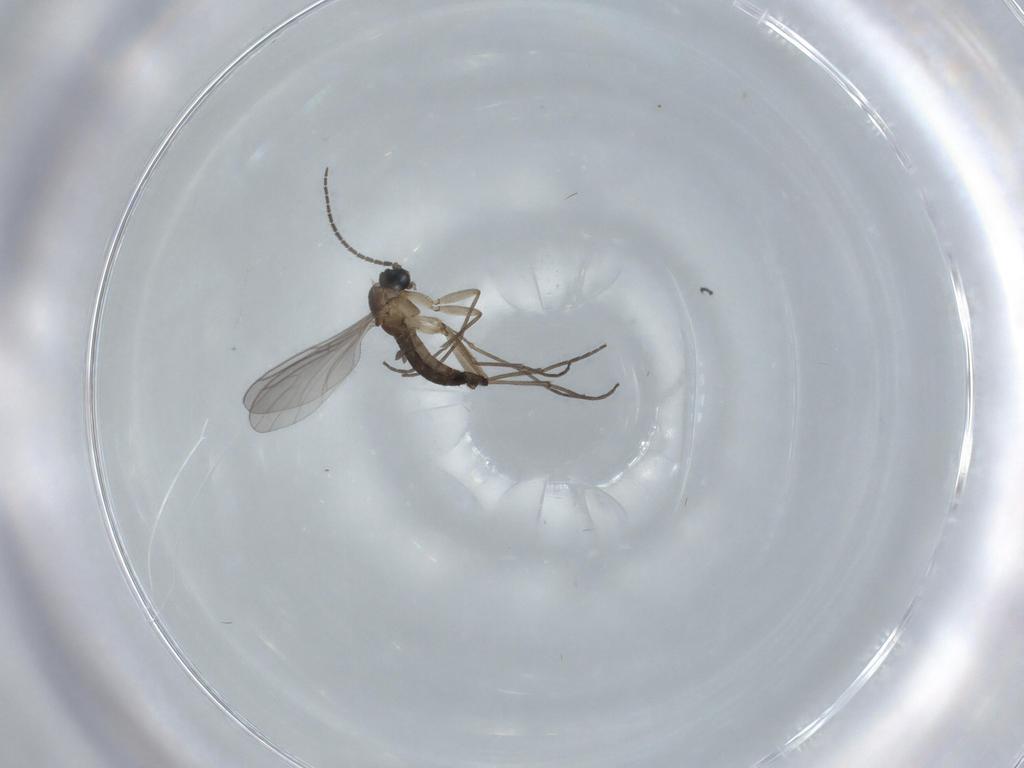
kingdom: Animalia
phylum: Arthropoda
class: Insecta
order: Diptera
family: Sciaridae
